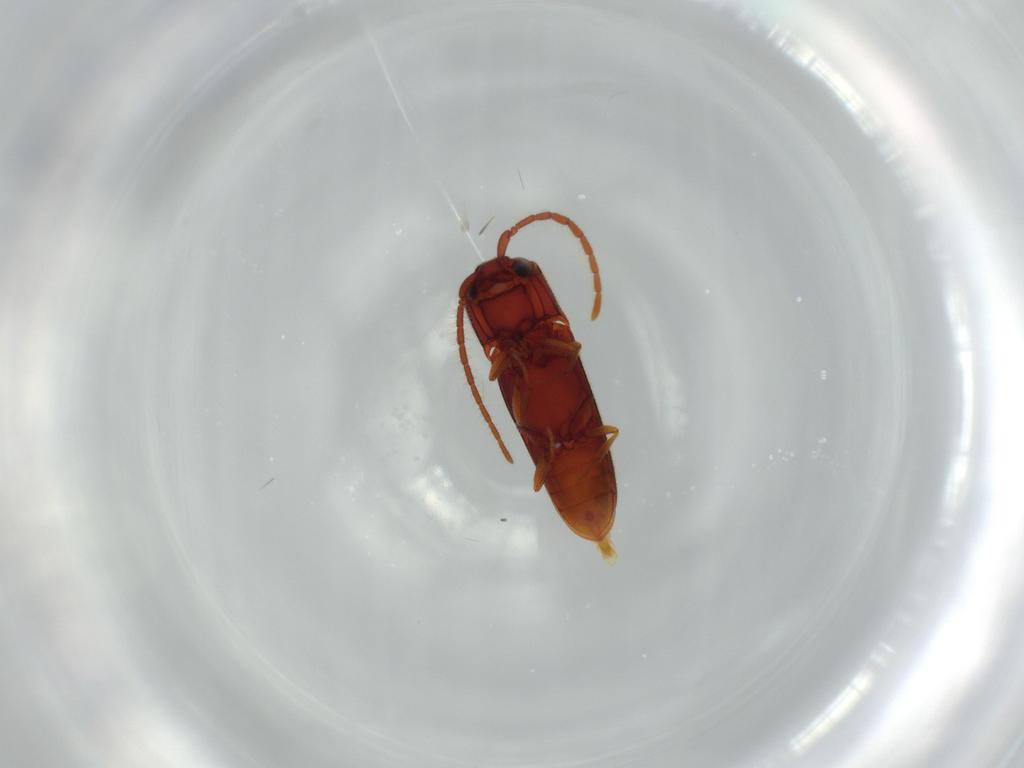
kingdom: Animalia
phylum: Arthropoda
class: Insecta
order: Coleoptera
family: Eucnemidae
